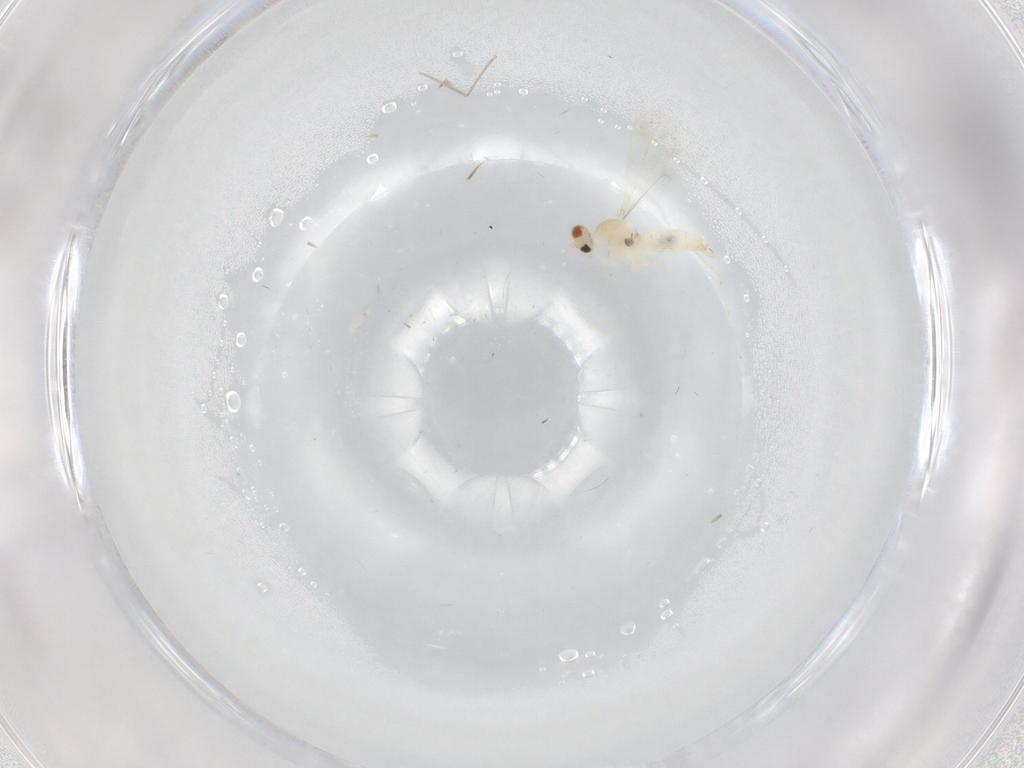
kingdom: Animalia
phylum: Arthropoda
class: Insecta
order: Diptera
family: Cecidomyiidae
